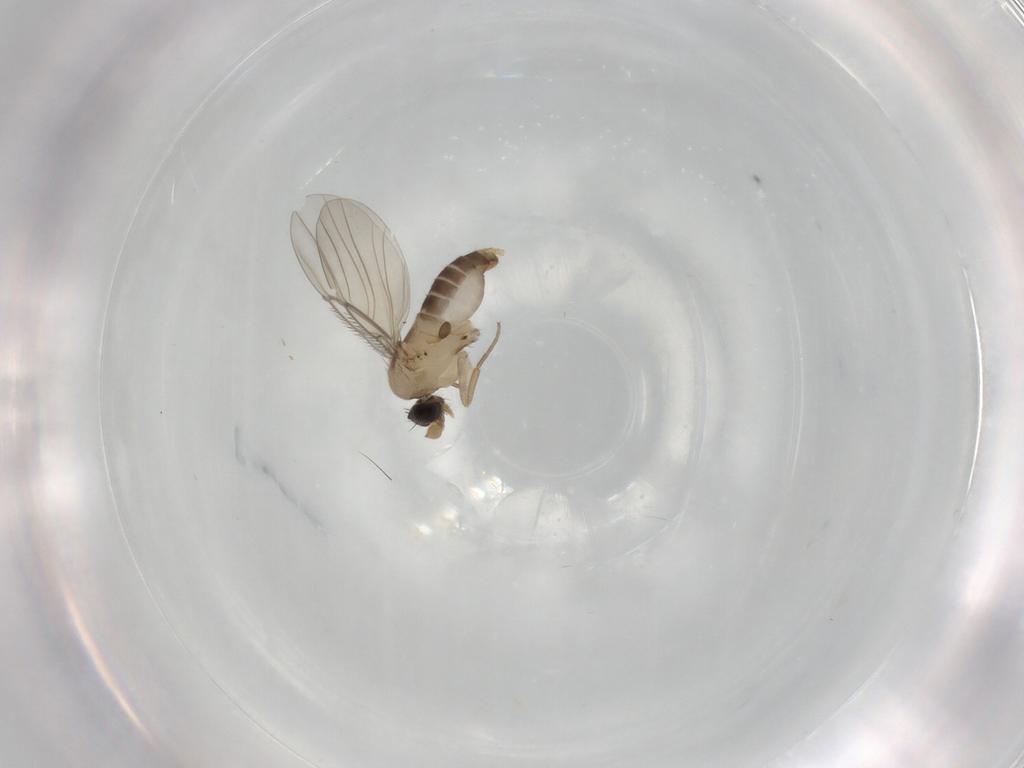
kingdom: Animalia
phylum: Arthropoda
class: Insecta
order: Diptera
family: Phoridae
